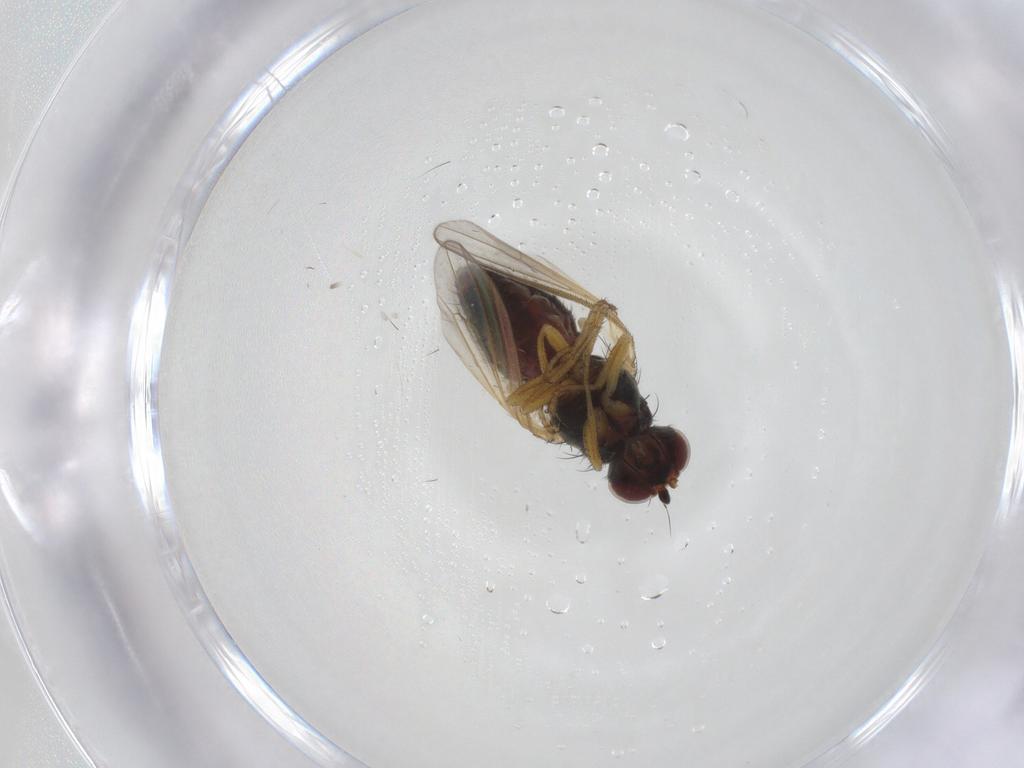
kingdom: Animalia
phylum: Arthropoda
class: Insecta
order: Diptera
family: Heleomyzidae
